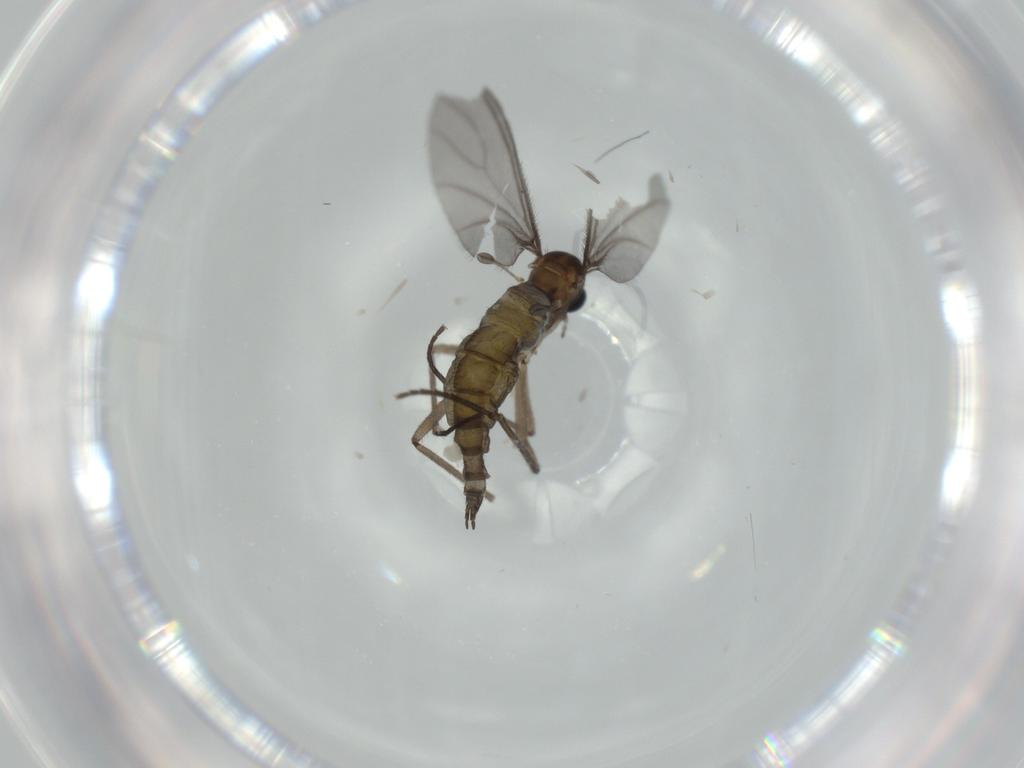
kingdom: Animalia
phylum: Arthropoda
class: Insecta
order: Diptera
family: Sciaridae
